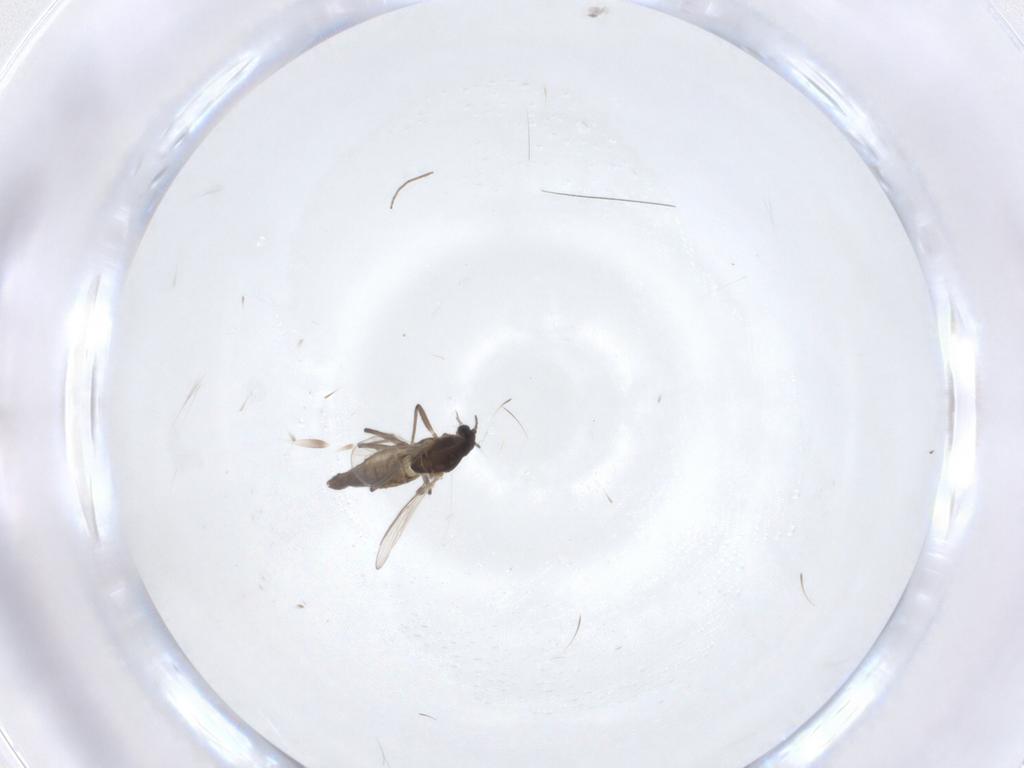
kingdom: Animalia
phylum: Arthropoda
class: Insecta
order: Diptera
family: Chironomidae
